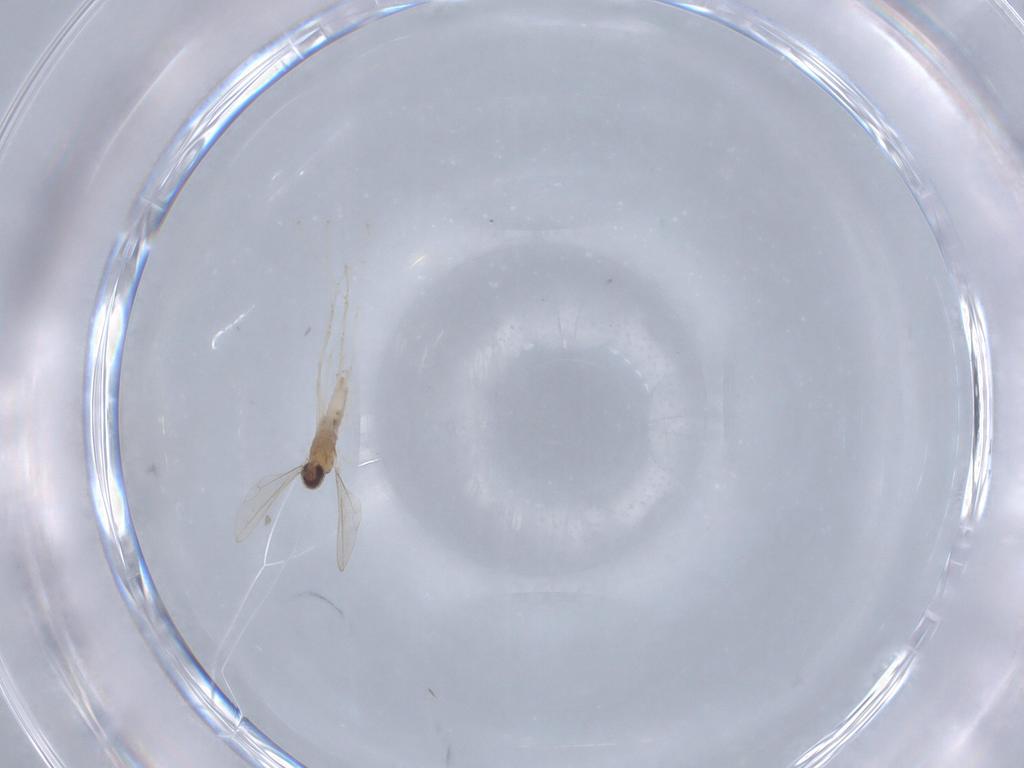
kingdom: Animalia
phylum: Arthropoda
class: Insecta
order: Diptera
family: Cecidomyiidae
